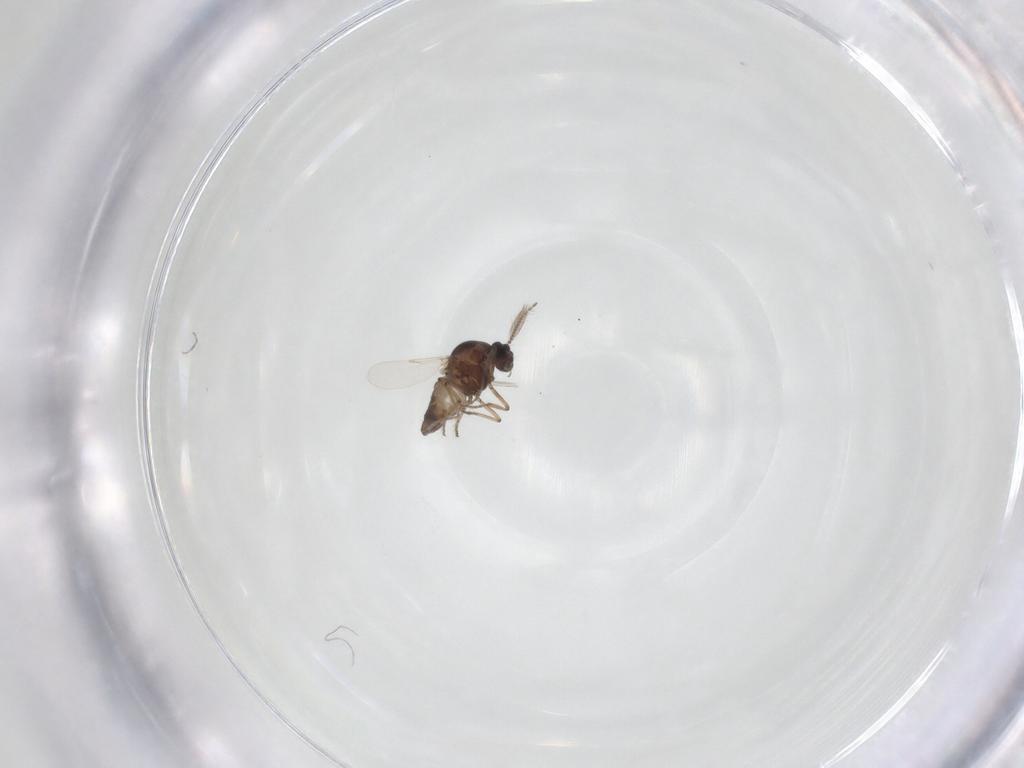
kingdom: Animalia
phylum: Arthropoda
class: Insecta
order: Diptera
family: Ceratopogonidae
